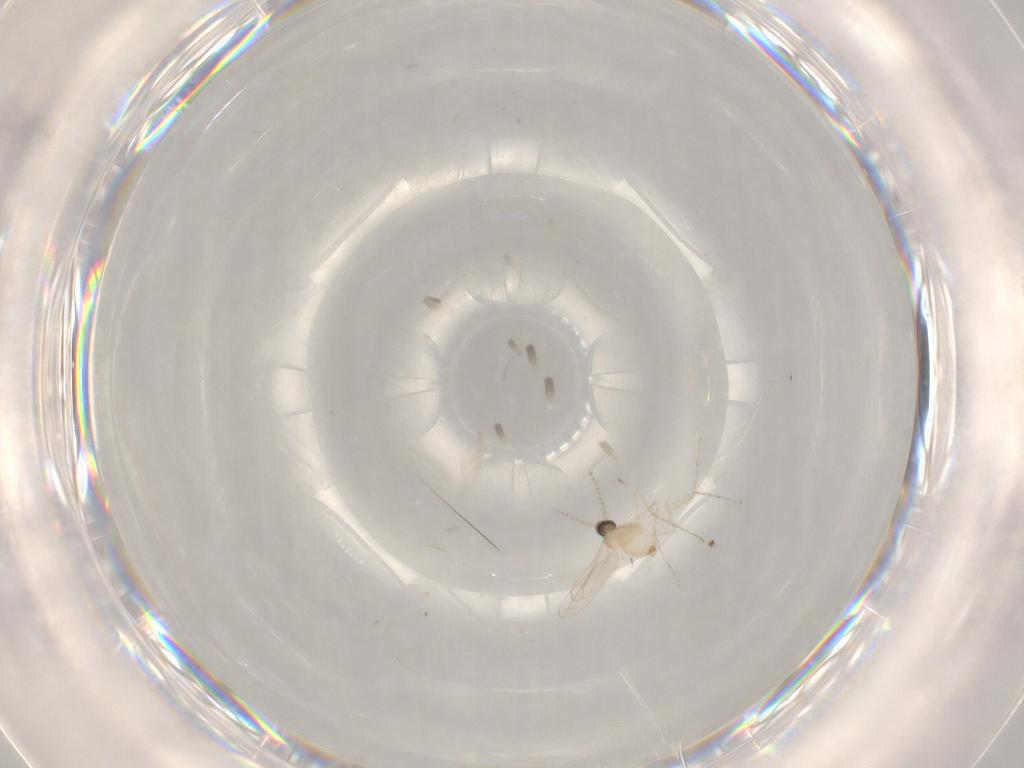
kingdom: Animalia
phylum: Arthropoda
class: Insecta
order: Diptera
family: Cecidomyiidae
